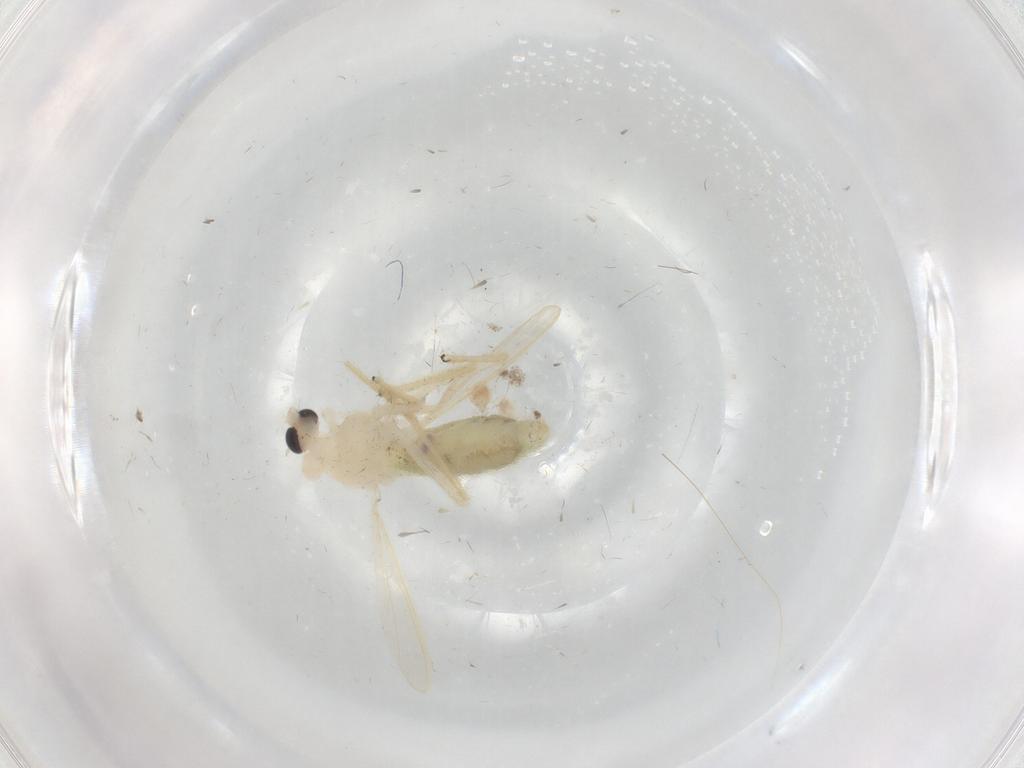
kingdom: Animalia
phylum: Arthropoda
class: Insecta
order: Diptera
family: Chironomidae
